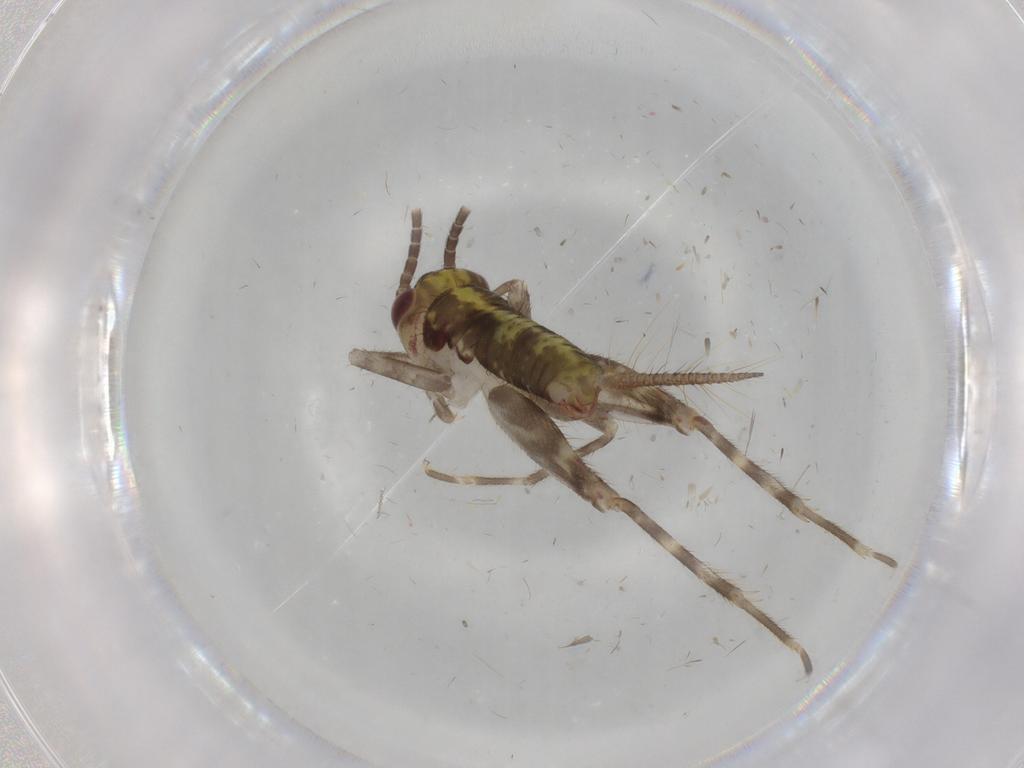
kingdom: Animalia
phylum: Arthropoda
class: Insecta
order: Orthoptera
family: Gryllidae
